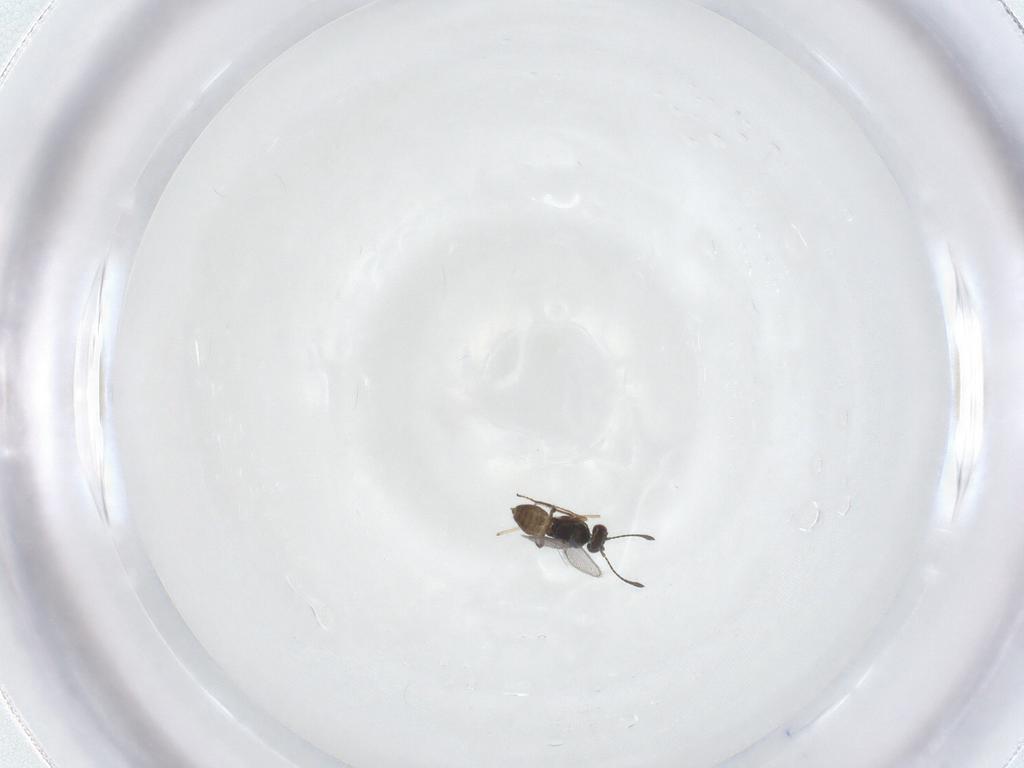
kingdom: Animalia
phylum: Arthropoda
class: Insecta
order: Hymenoptera
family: Mymaridae
